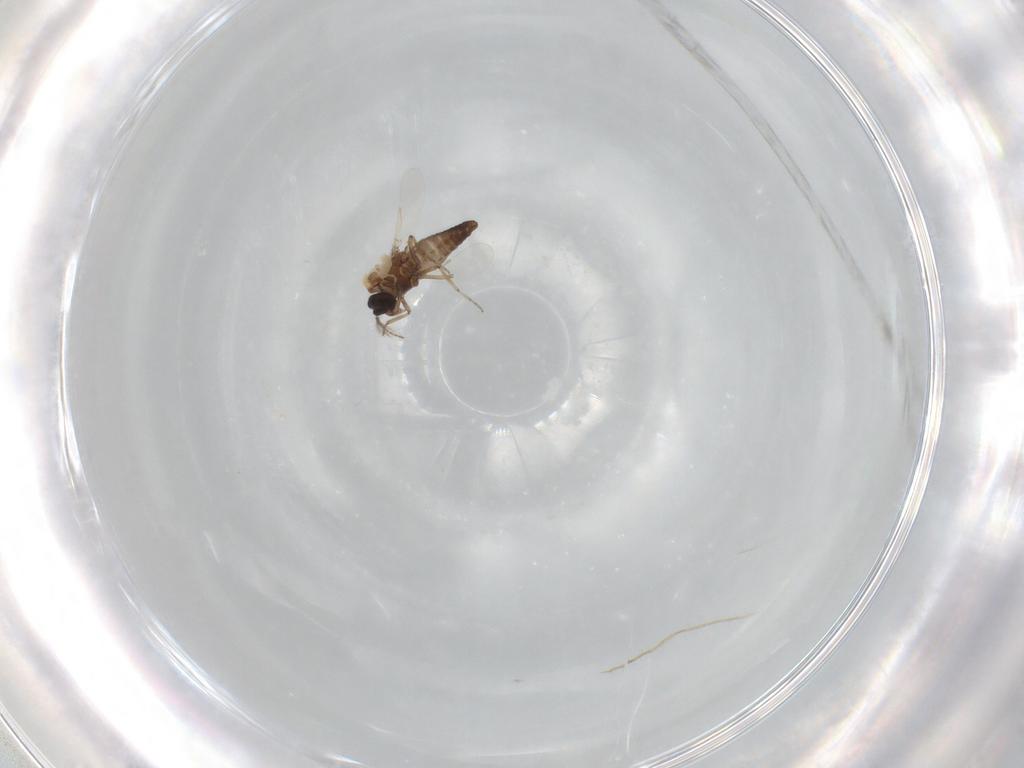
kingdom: Animalia
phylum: Arthropoda
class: Insecta
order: Diptera
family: Ceratopogonidae
